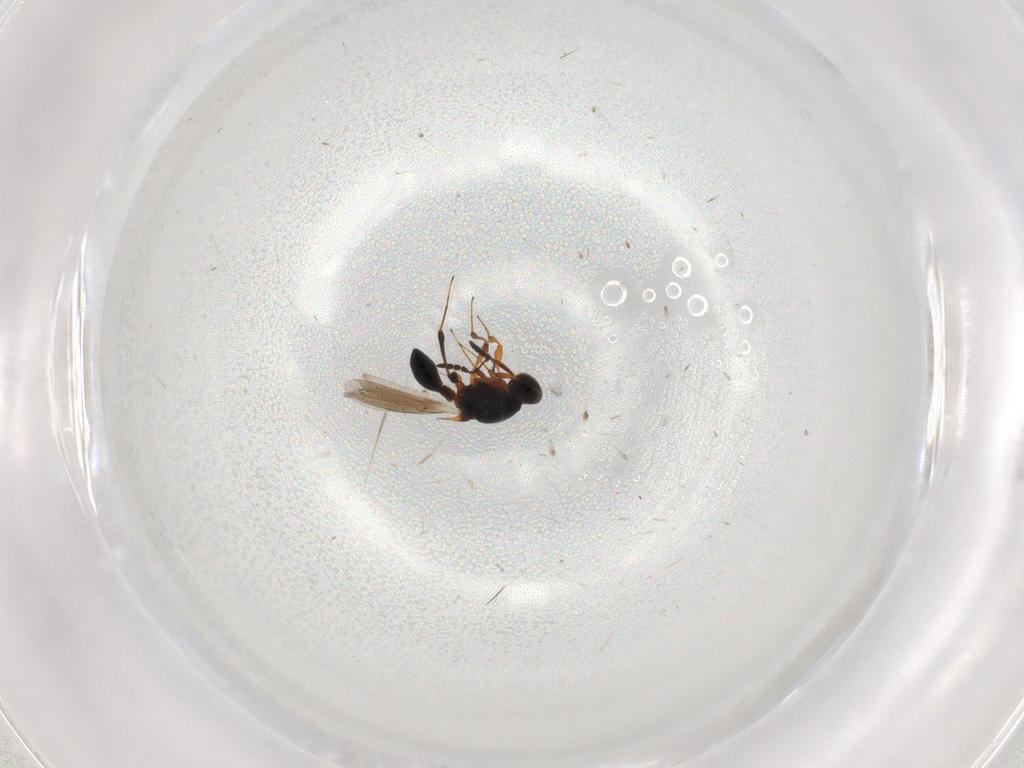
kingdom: Animalia
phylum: Arthropoda
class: Insecta
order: Hymenoptera
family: Platygastridae
